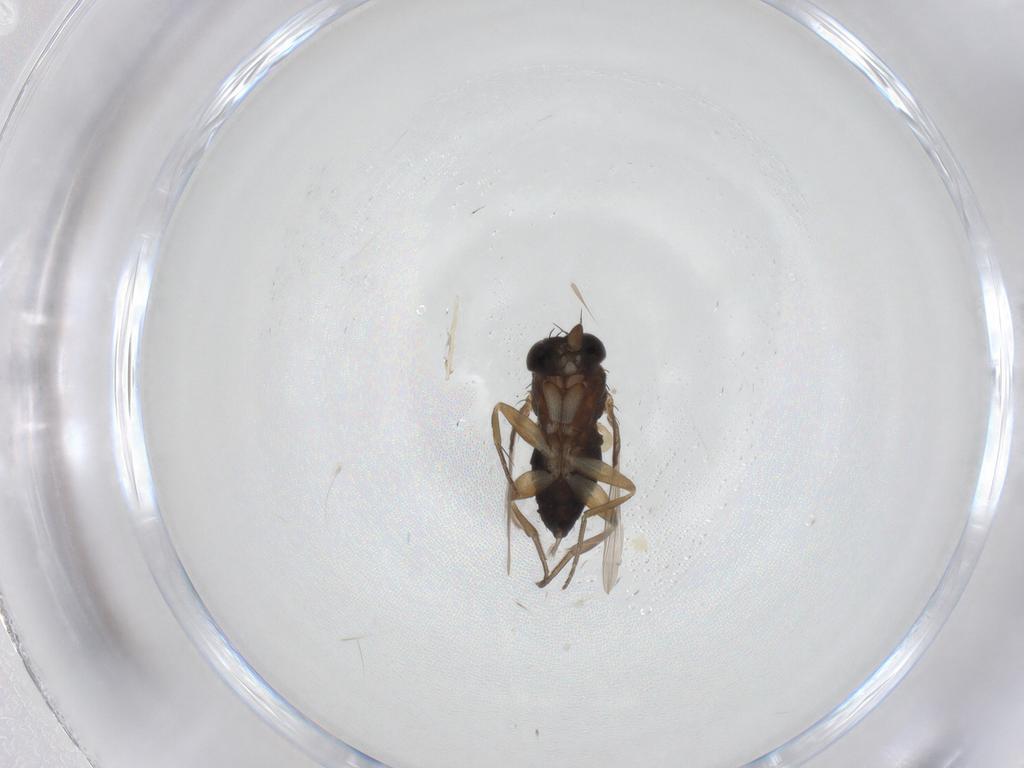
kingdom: Animalia
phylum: Arthropoda
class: Insecta
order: Diptera
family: Phoridae
